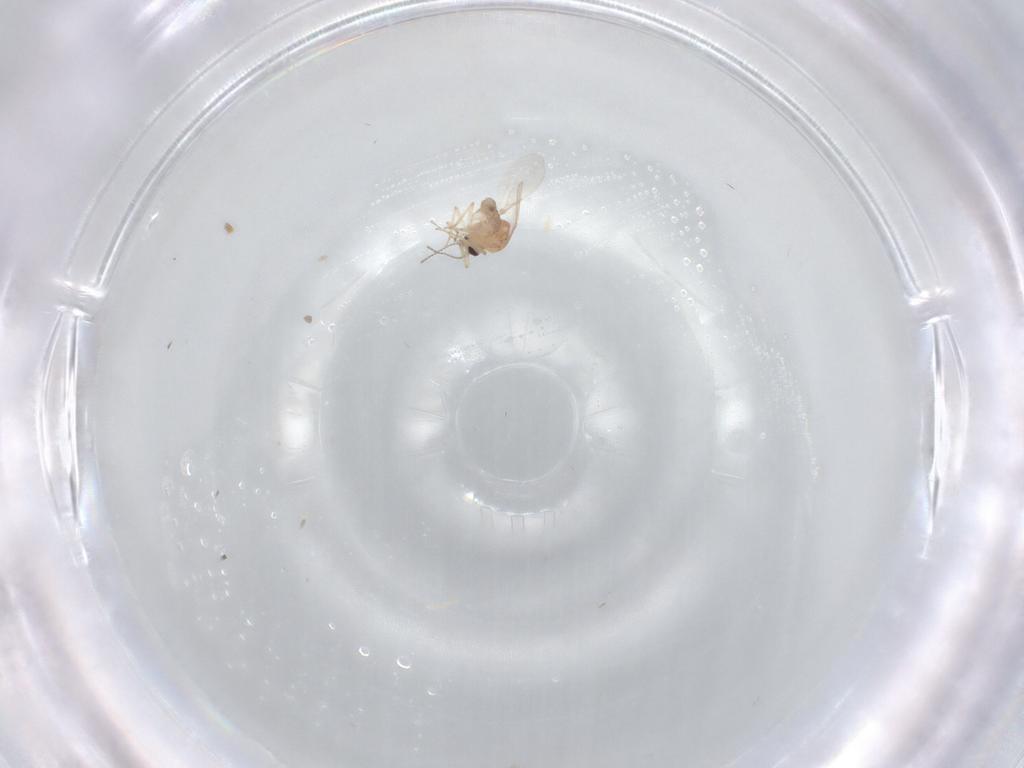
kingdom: Animalia
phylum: Arthropoda
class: Insecta
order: Diptera
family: Ceratopogonidae
